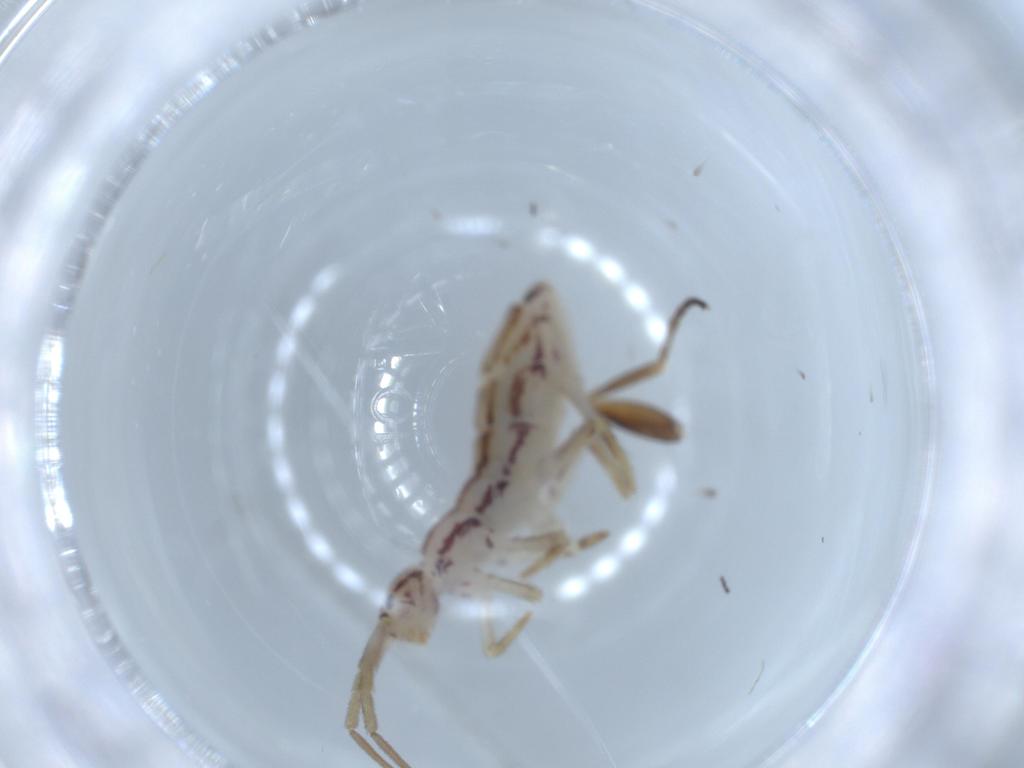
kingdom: Animalia
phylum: Arthropoda
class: Collembola
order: Entomobryomorpha
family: Entomobryidae
